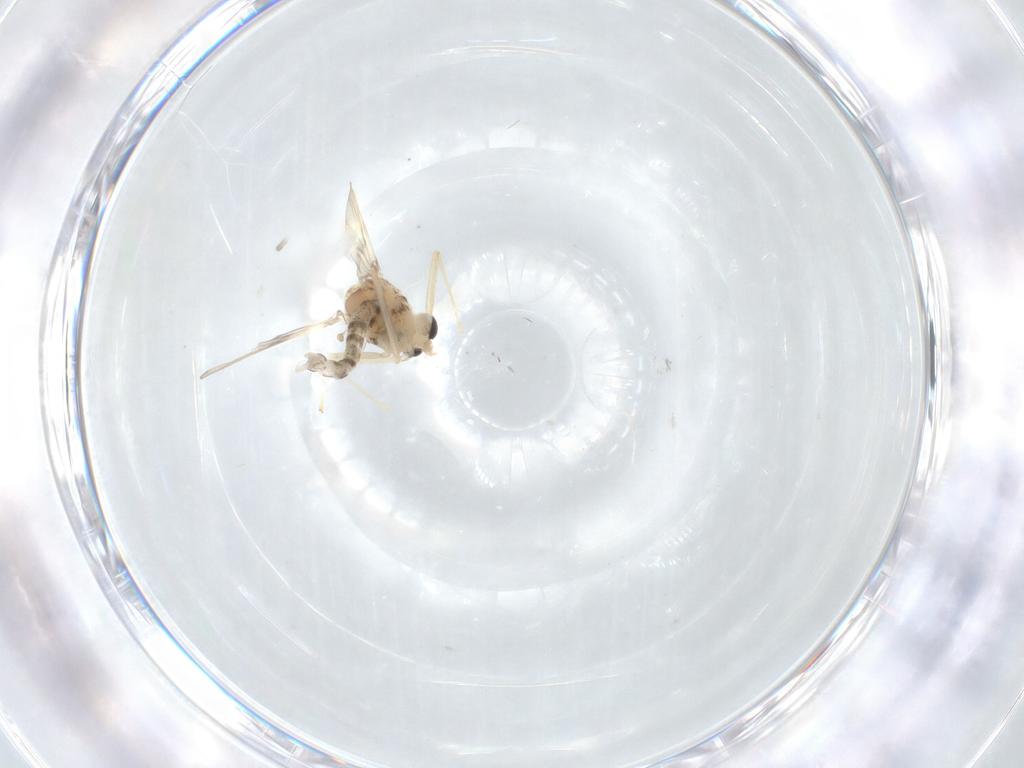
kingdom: Animalia
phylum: Arthropoda
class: Insecta
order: Diptera
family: Chironomidae
